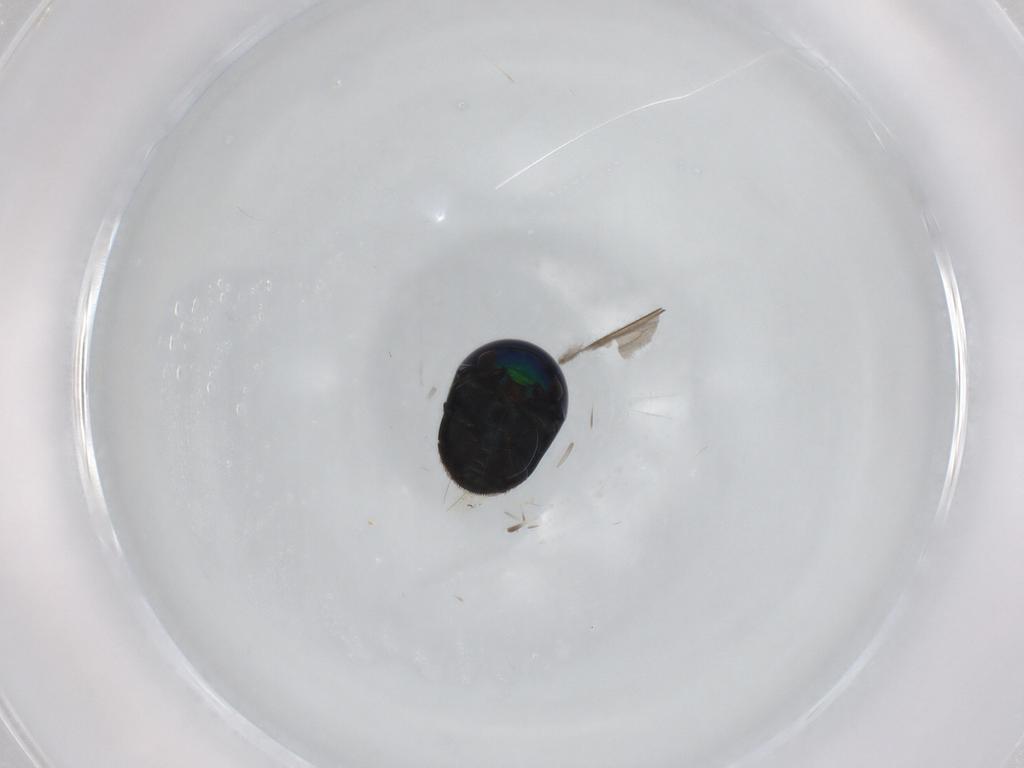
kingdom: Animalia
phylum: Arthropoda
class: Insecta
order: Coleoptera
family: Cybocephalidae
